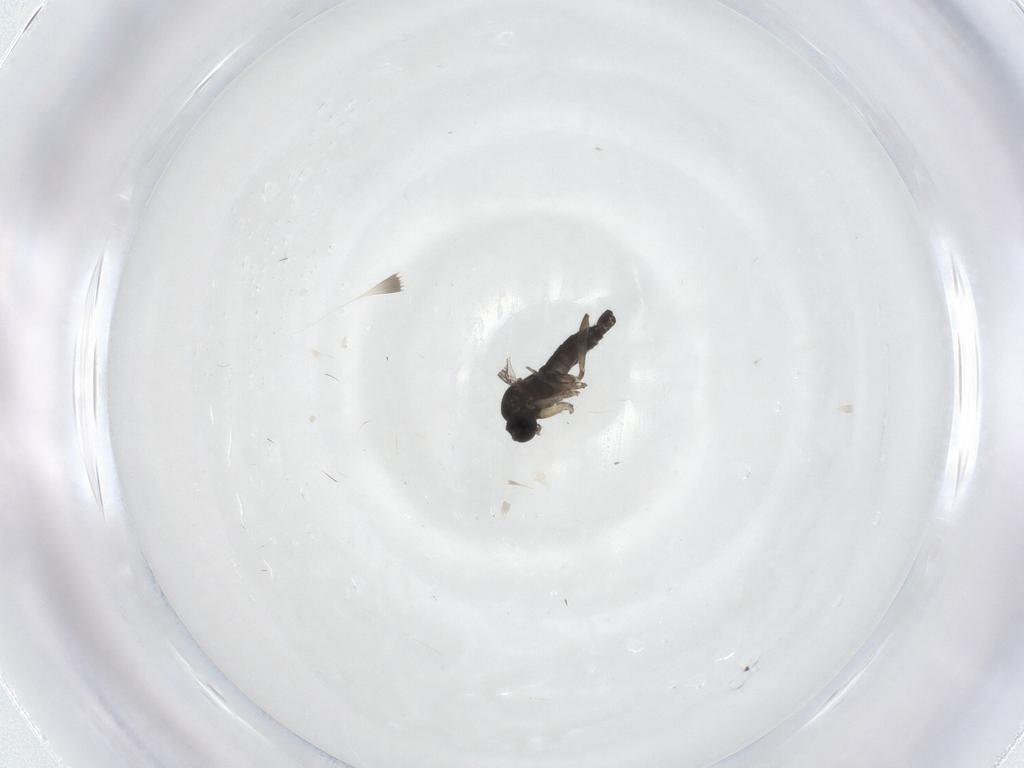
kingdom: Animalia
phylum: Arthropoda
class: Insecta
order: Diptera
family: Sciaridae
